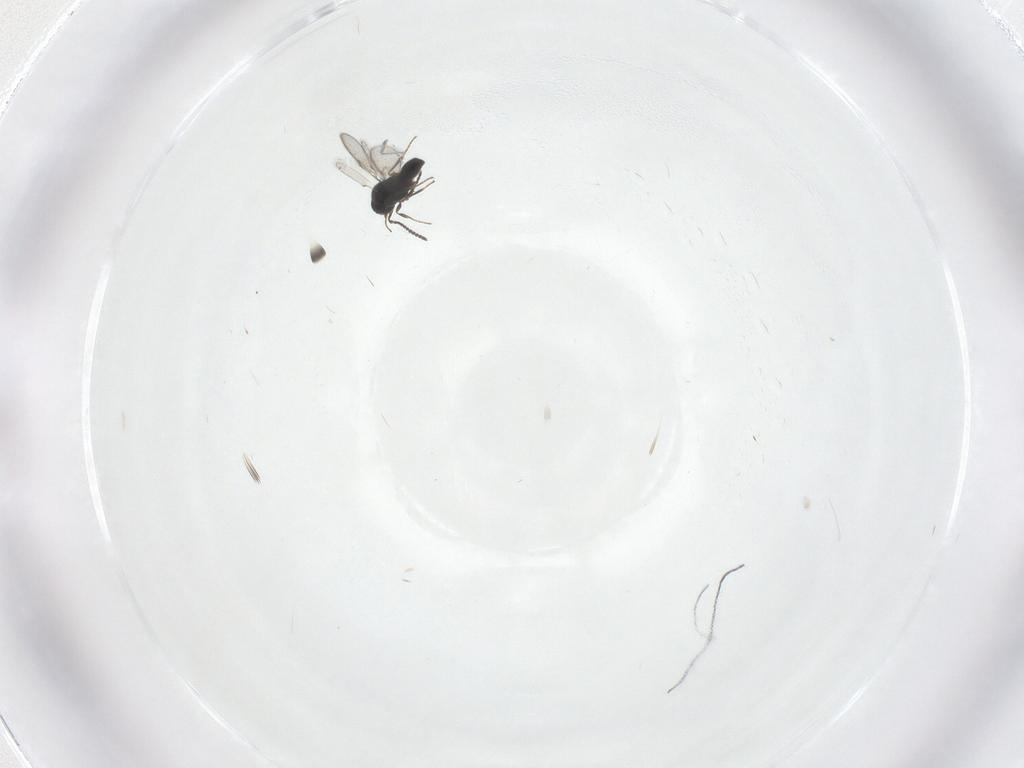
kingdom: Animalia
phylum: Arthropoda
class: Insecta
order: Hymenoptera
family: Scelionidae
